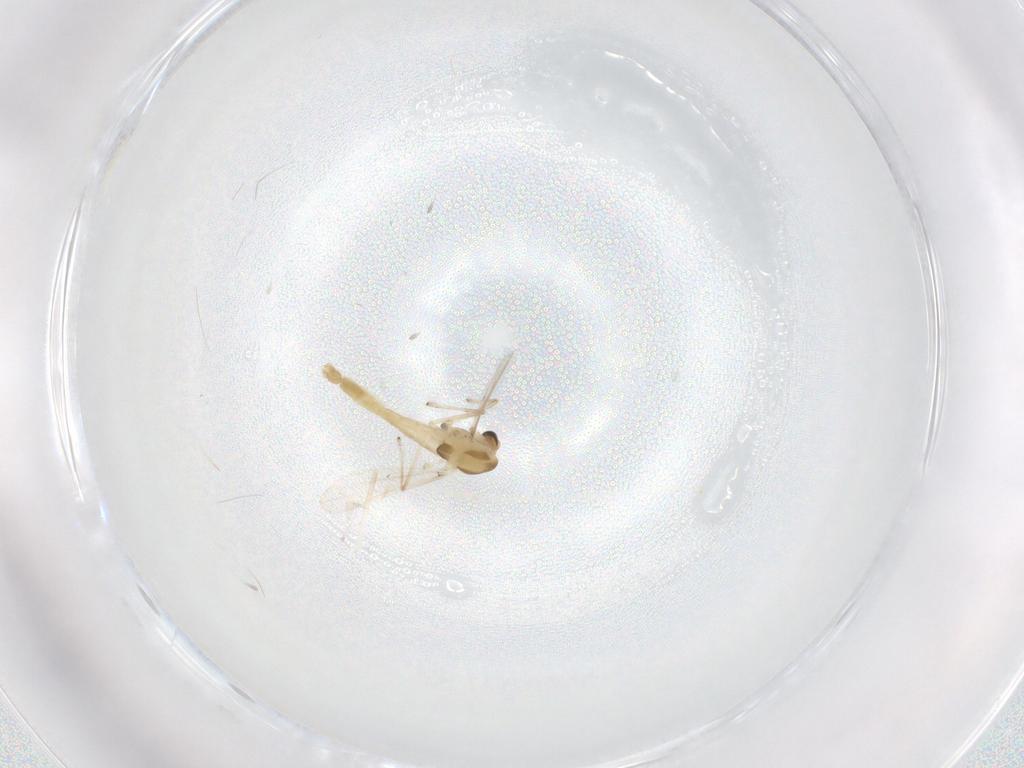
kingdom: Animalia
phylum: Arthropoda
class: Insecta
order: Diptera
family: Chironomidae
